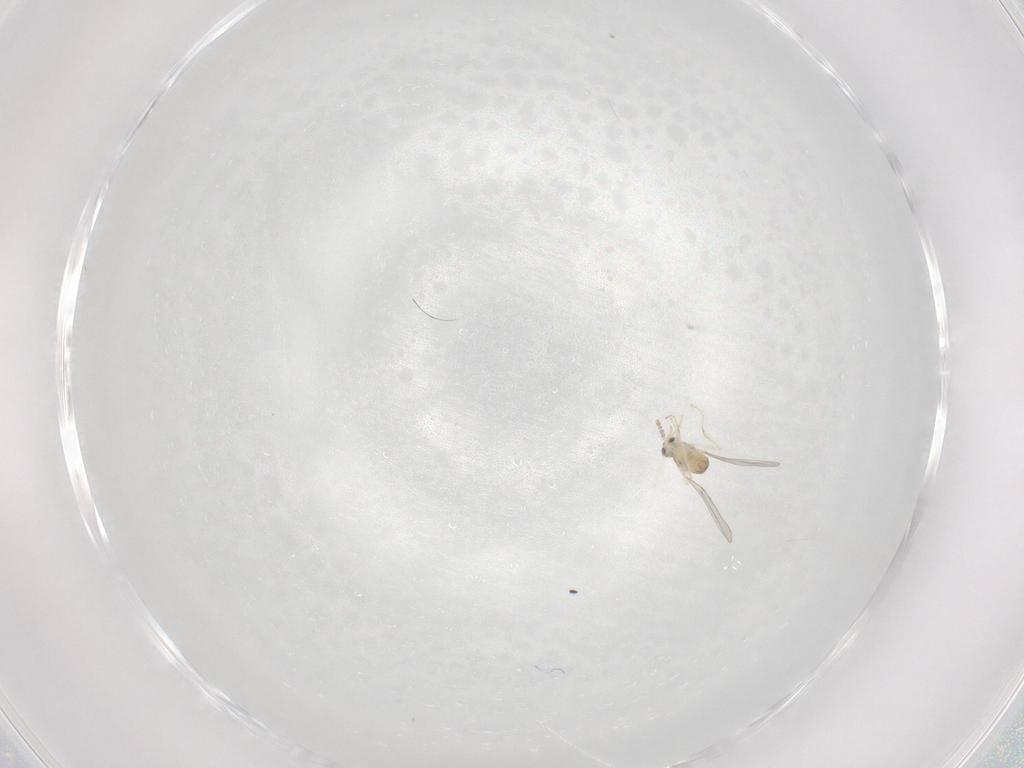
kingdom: Animalia
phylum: Arthropoda
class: Insecta
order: Diptera
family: Cecidomyiidae
